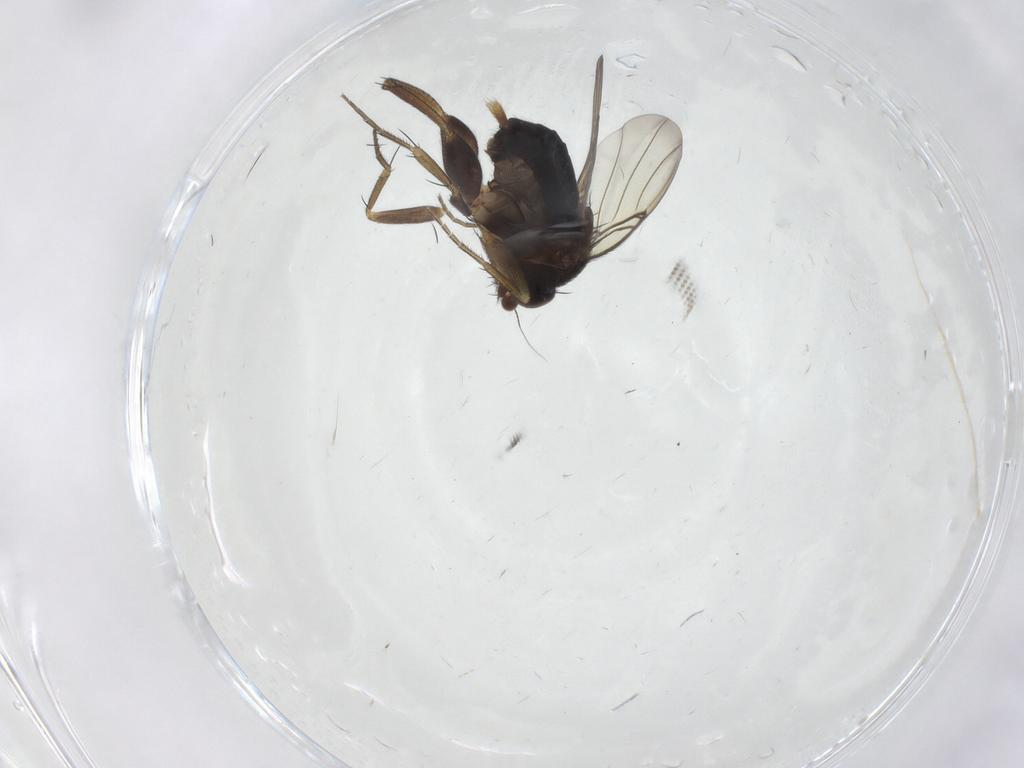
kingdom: Animalia
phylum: Arthropoda
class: Insecta
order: Diptera
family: Phoridae
